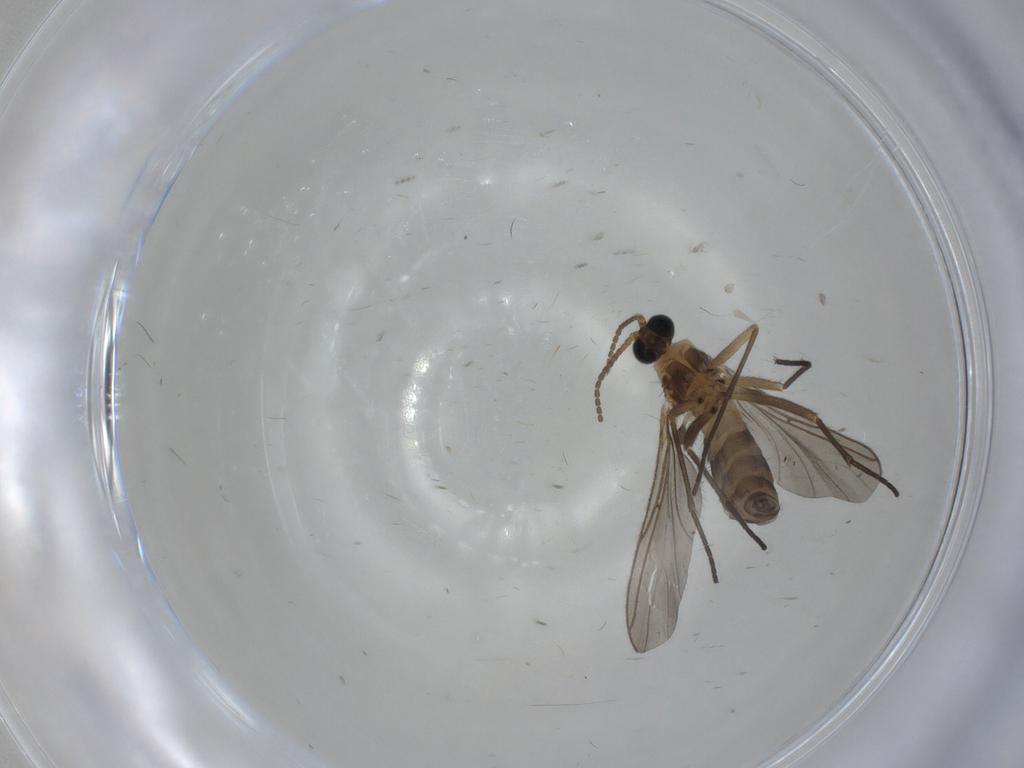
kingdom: Animalia
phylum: Arthropoda
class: Insecta
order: Diptera
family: Sciaridae
